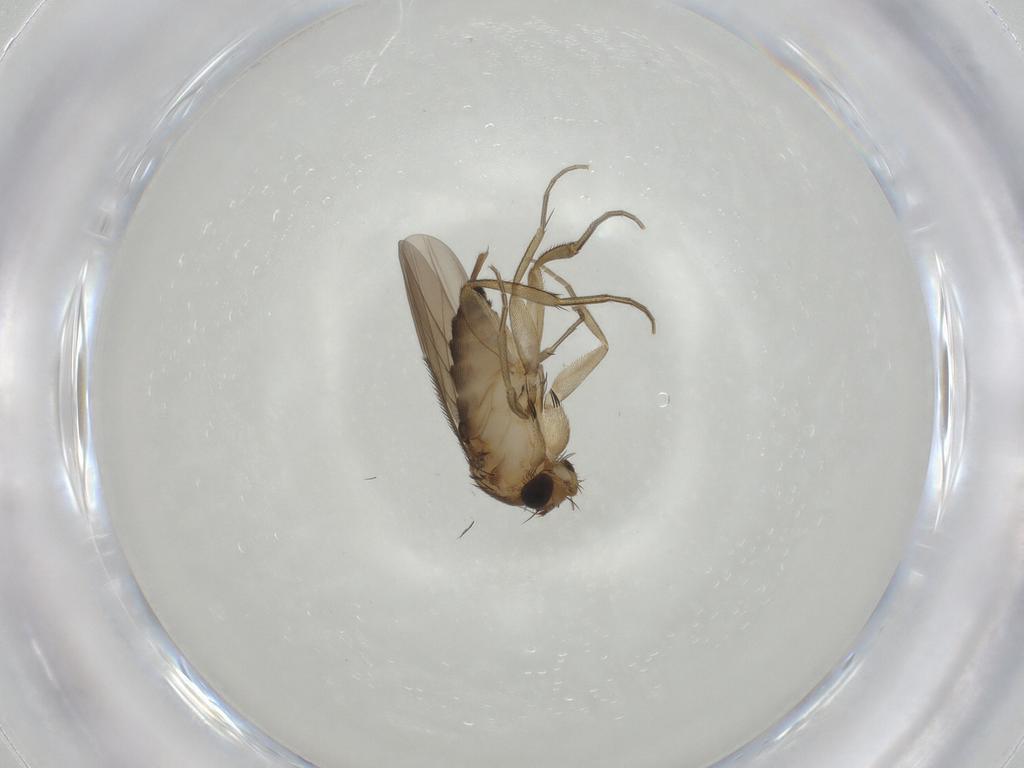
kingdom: Animalia
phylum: Arthropoda
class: Insecta
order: Diptera
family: Phoridae
